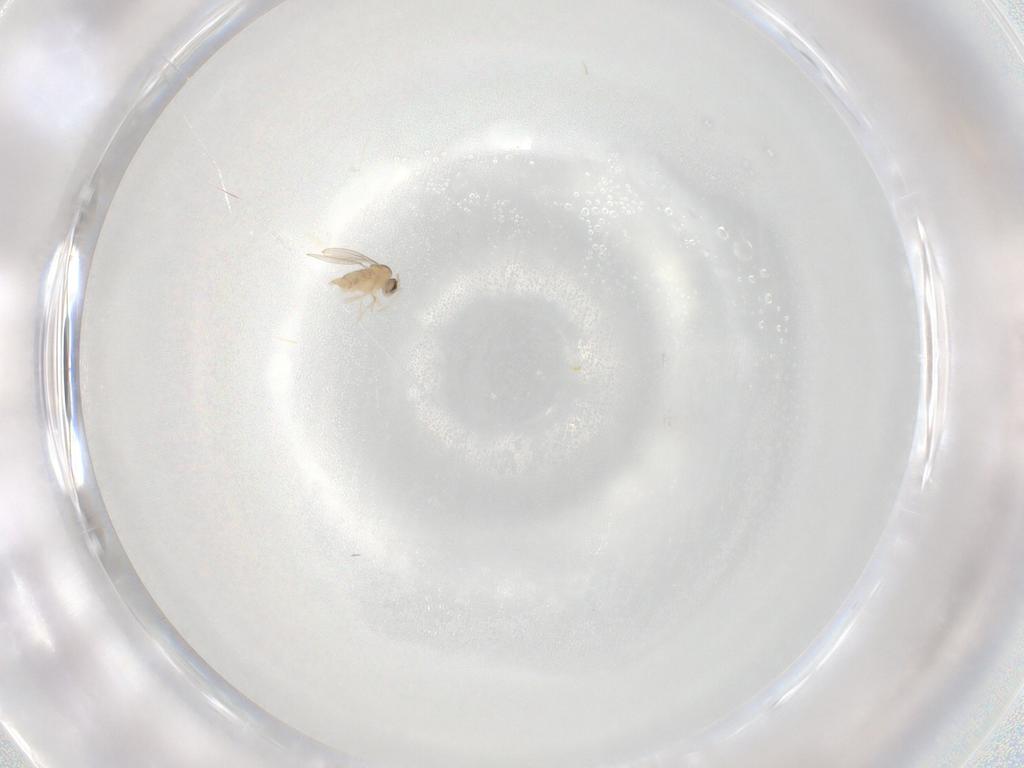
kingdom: Animalia
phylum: Arthropoda
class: Insecta
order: Diptera
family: Cecidomyiidae
